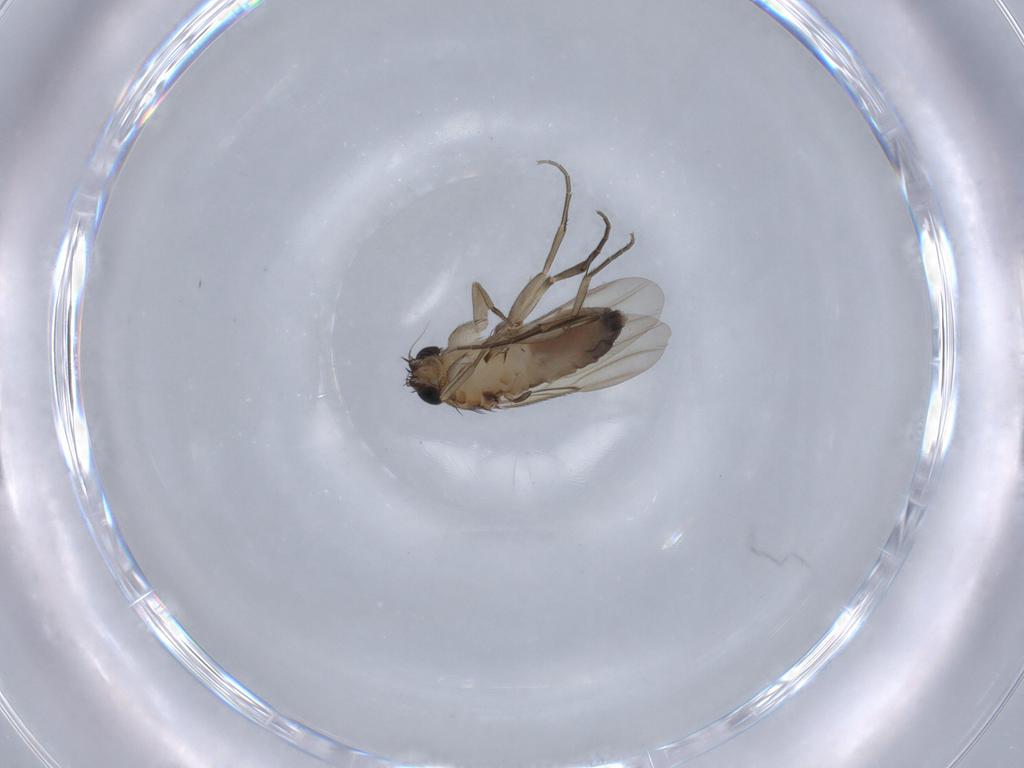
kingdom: Animalia
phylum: Arthropoda
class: Insecta
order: Diptera
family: Phoridae
